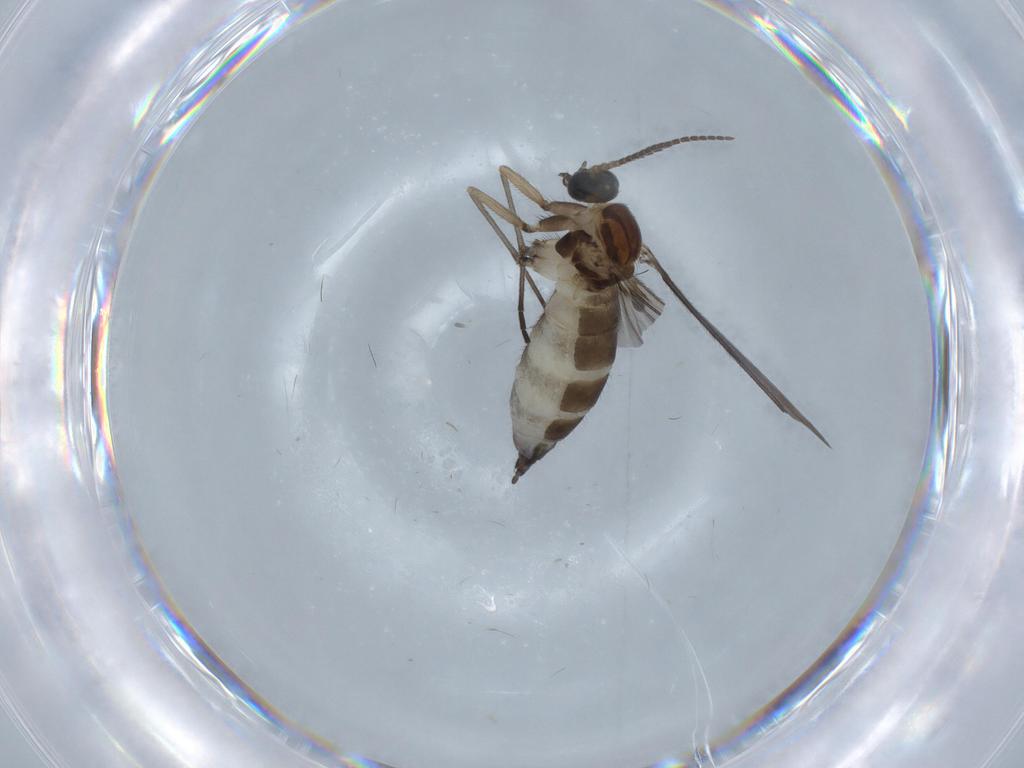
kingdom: Animalia
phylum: Arthropoda
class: Insecta
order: Diptera
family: Sciaridae
